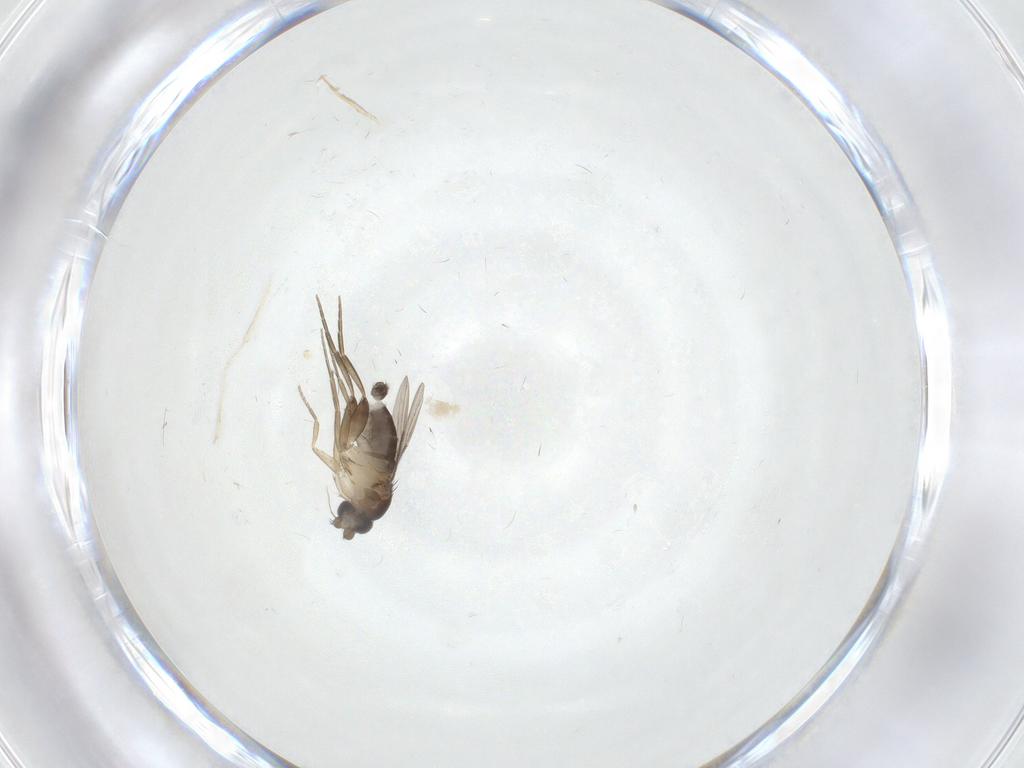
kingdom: Animalia
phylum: Arthropoda
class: Insecta
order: Diptera
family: Phoridae
